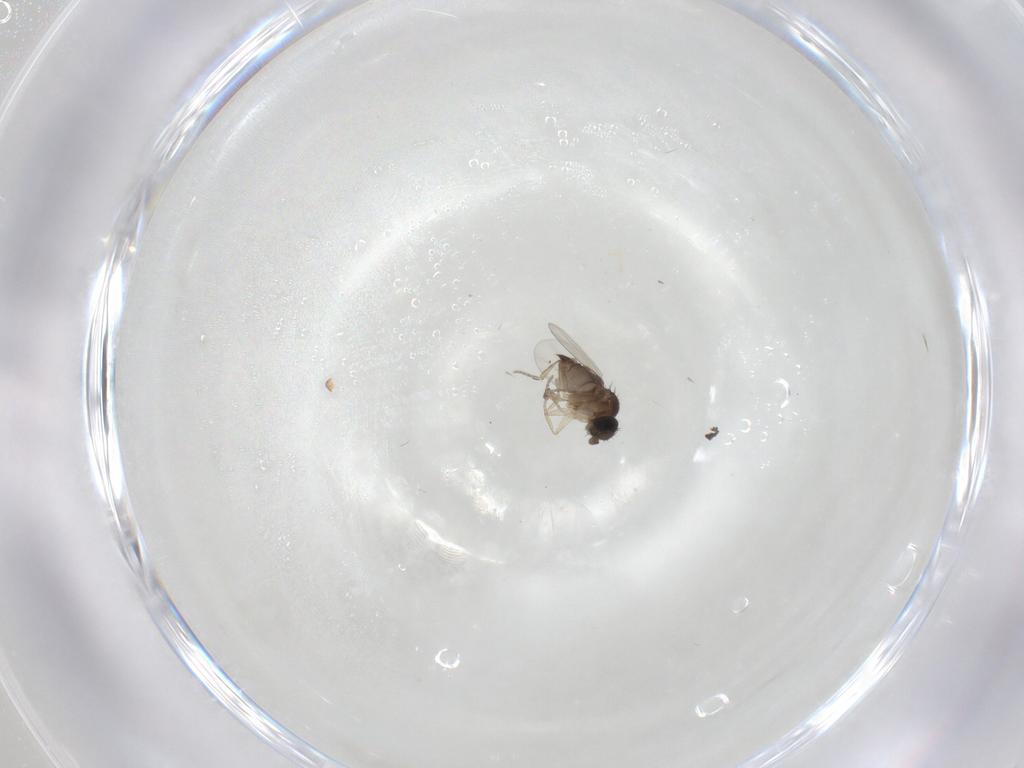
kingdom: Animalia
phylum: Arthropoda
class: Insecta
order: Diptera
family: Phoridae
